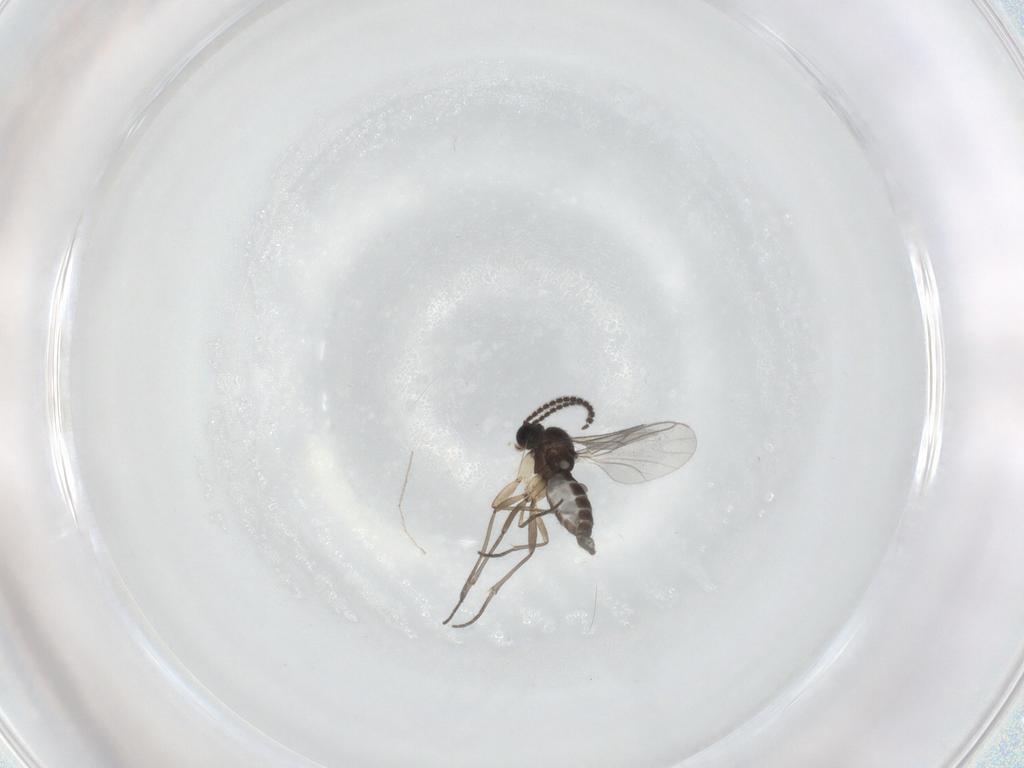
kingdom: Animalia
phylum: Arthropoda
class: Insecta
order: Diptera
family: Sciaridae
